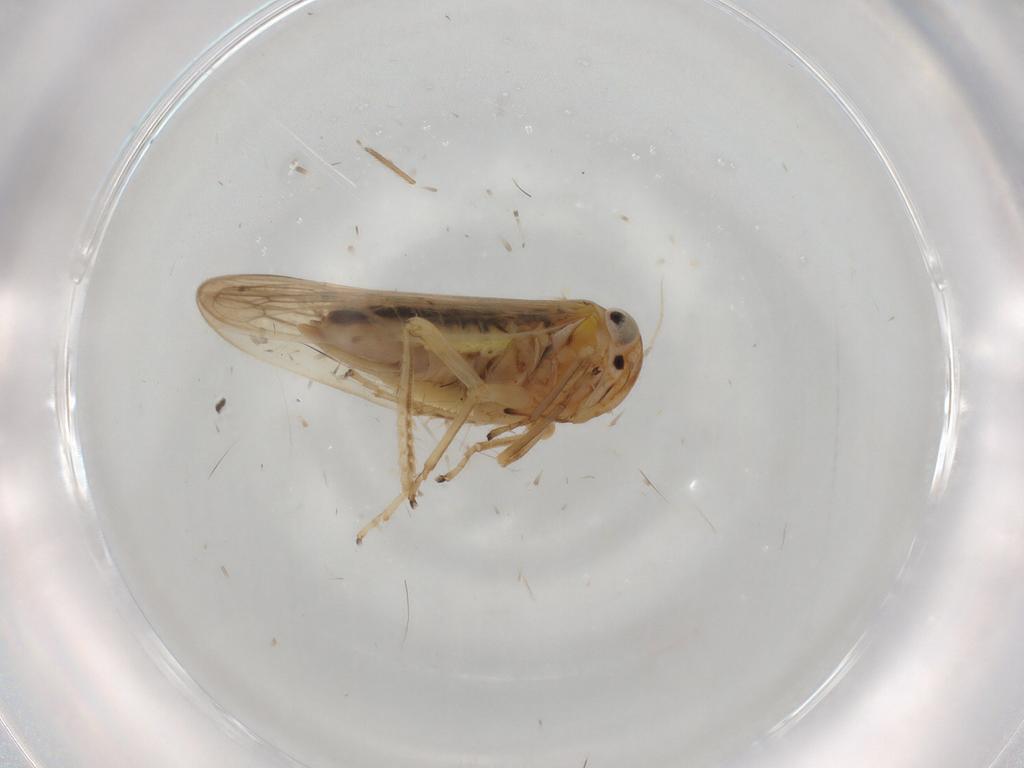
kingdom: Animalia
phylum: Arthropoda
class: Insecta
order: Hemiptera
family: Cicadellidae
